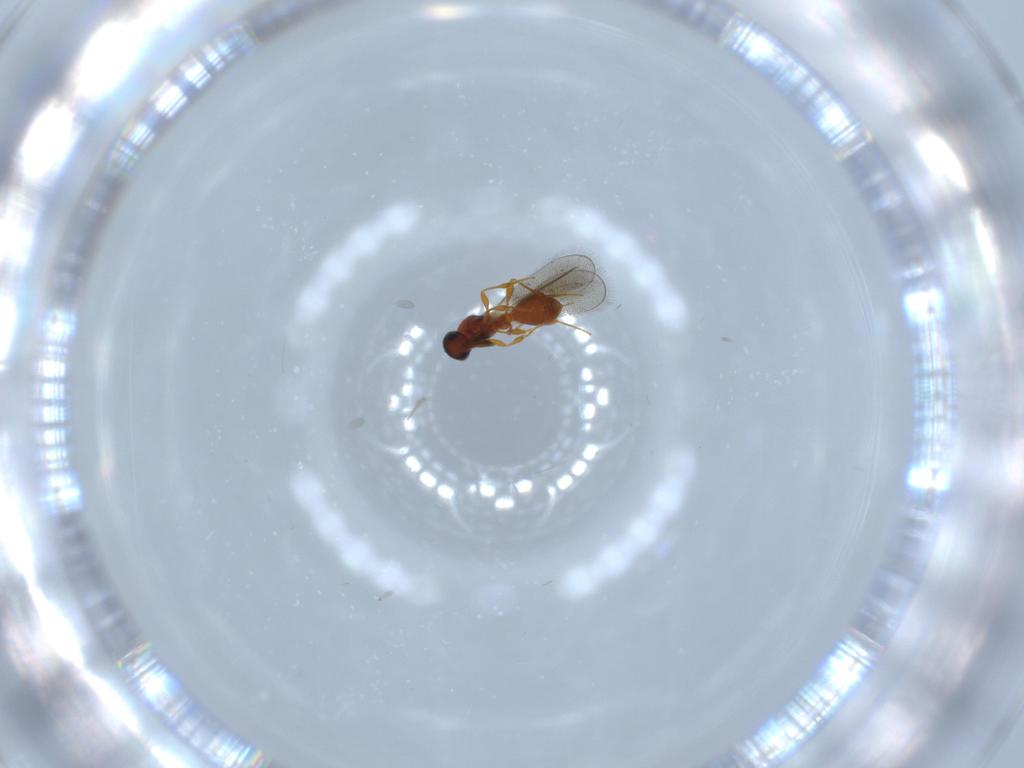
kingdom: Animalia
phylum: Arthropoda
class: Insecta
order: Hymenoptera
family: Platygastridae
